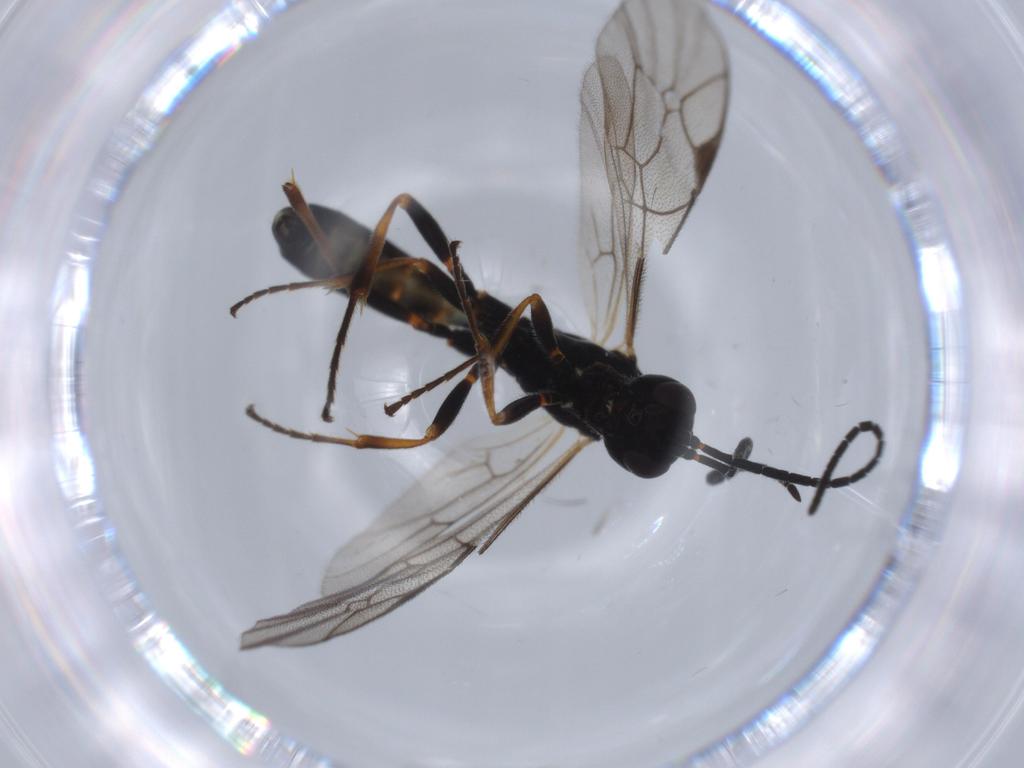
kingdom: Animalia
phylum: Arthropoda
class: Insecta
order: Hymenoptera
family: Ichneumonidae
